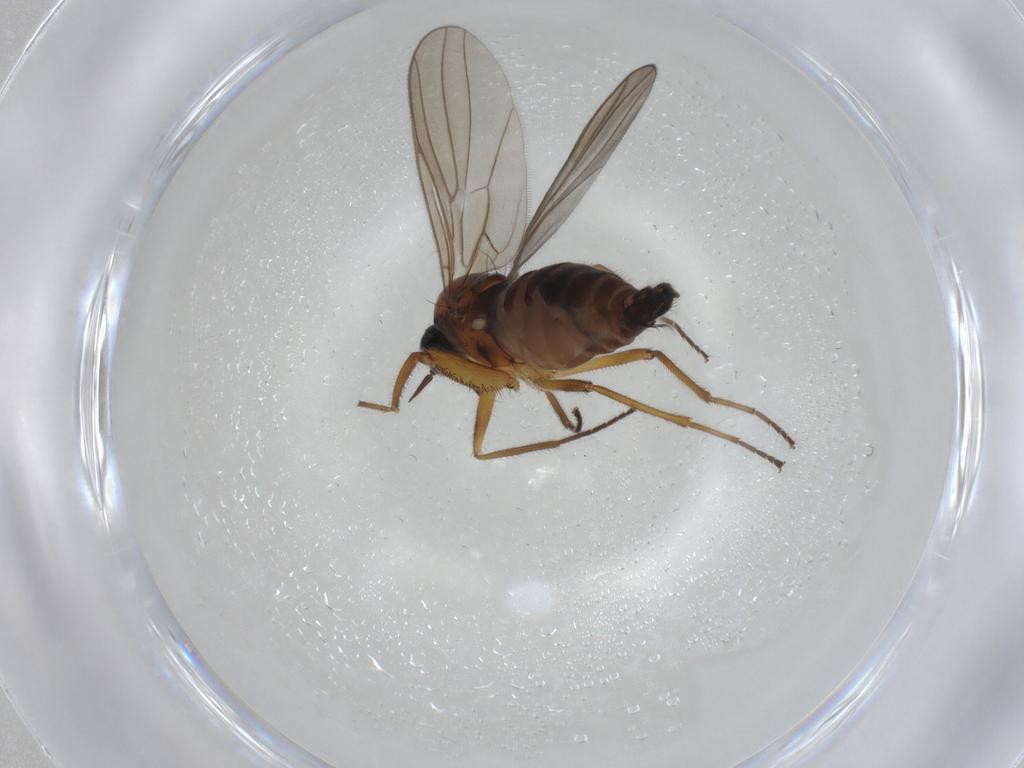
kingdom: Animalia
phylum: Arthropoda
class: Insecta
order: Diptera
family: Hybotidae
